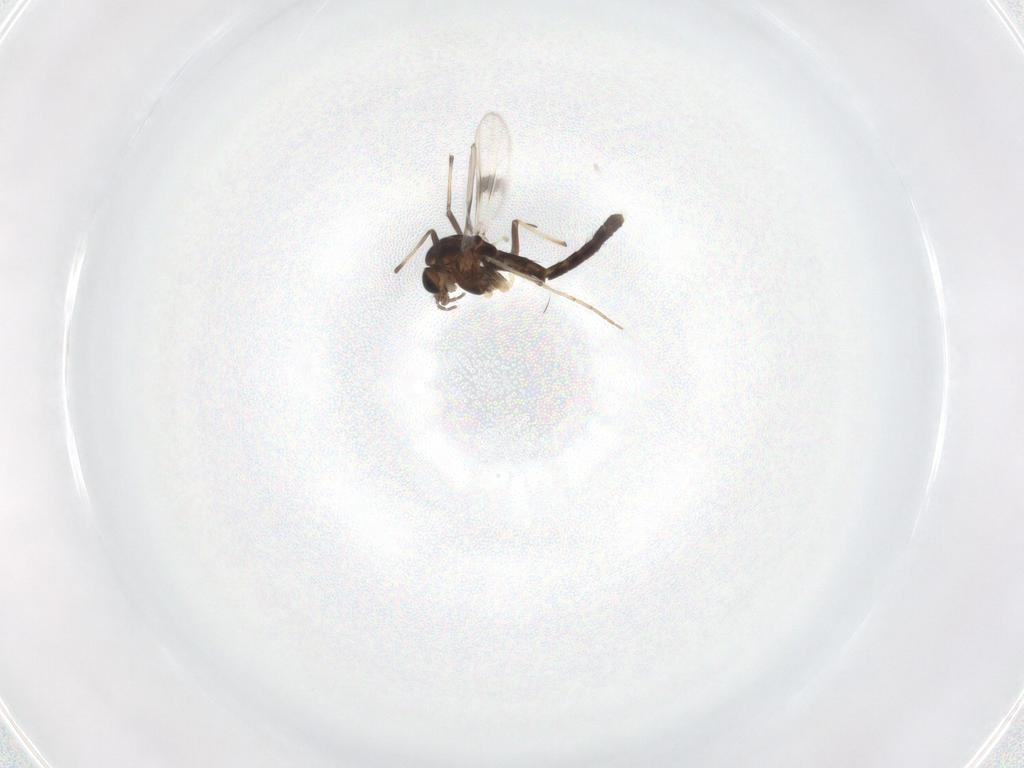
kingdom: Animalia
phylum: Arthropoda
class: Insecta
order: Diptera
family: Chironomidae
